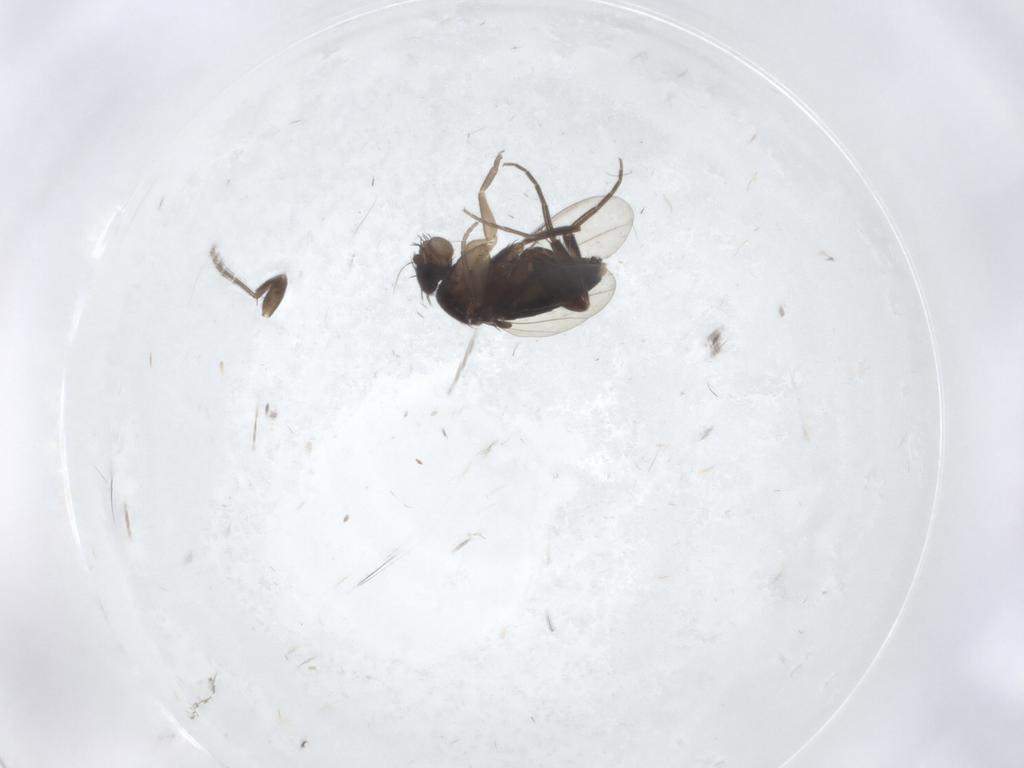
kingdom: Animalia
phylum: Arthropoda
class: Insecta
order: Diptera
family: Phoridae
